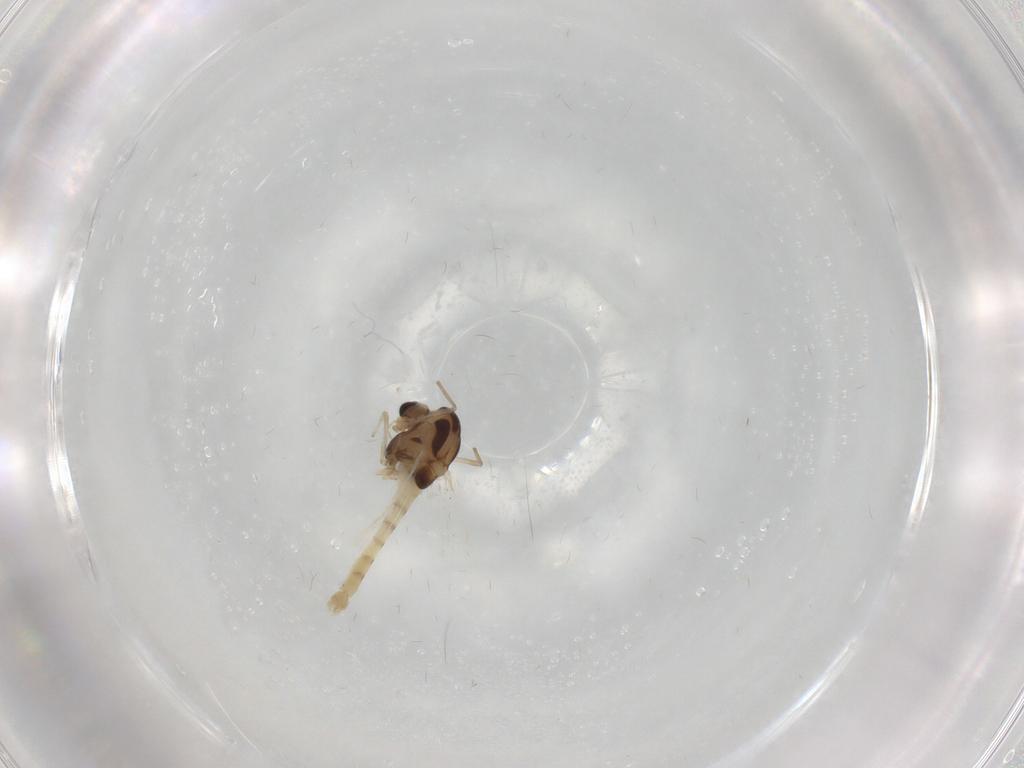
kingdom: Animalia
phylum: Arthropoda
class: Insecta
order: Diptera
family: Chironomidae
